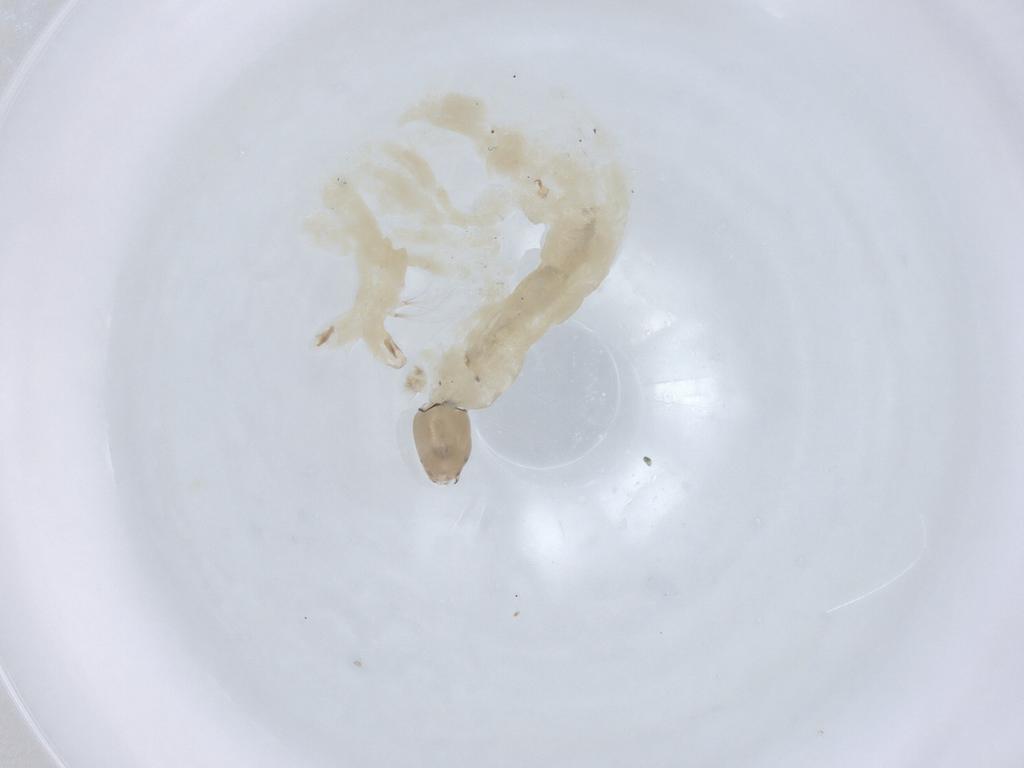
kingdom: Animalia
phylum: Arthropoda
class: Insecta
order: Diptera
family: Chironomidae
